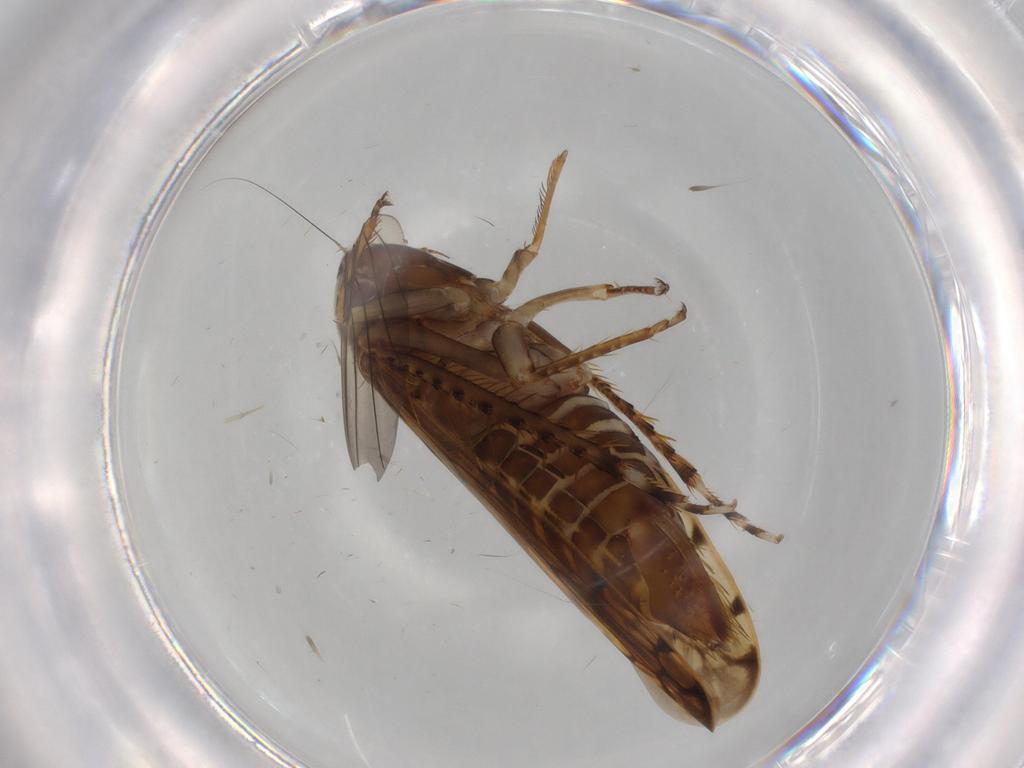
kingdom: Animalia
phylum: Arthropoda
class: Insecta
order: Hemiptera
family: Cicadellidae
